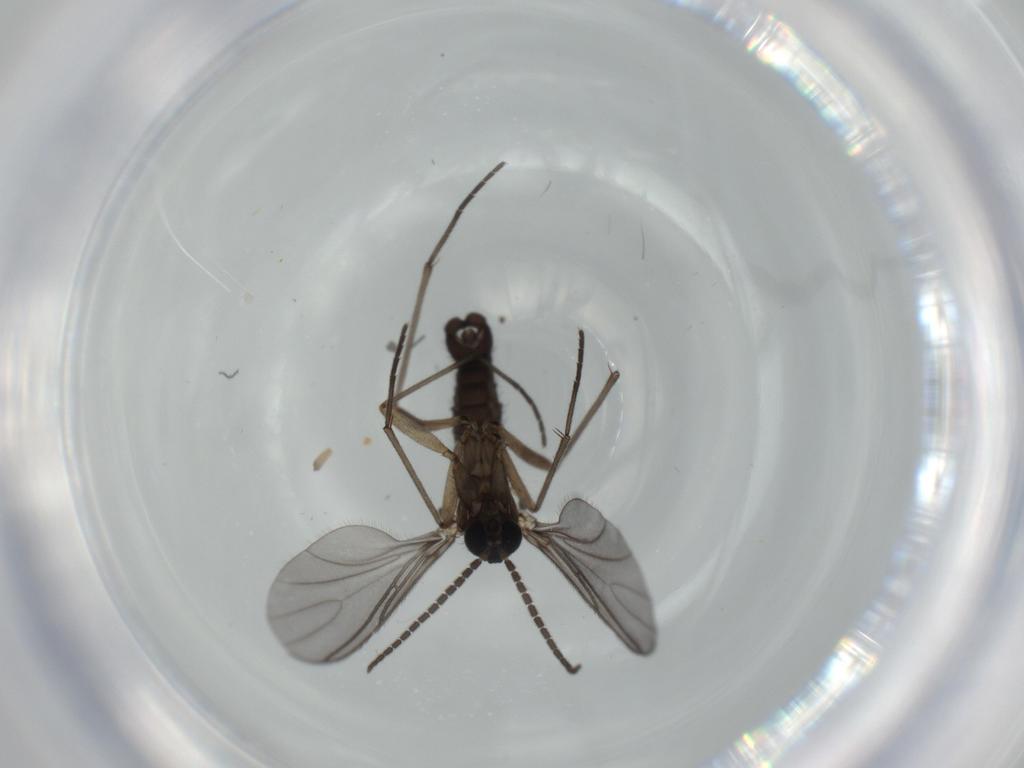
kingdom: Animalia
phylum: Arthropoda
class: Insecta
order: Diptera
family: Sciaridae
